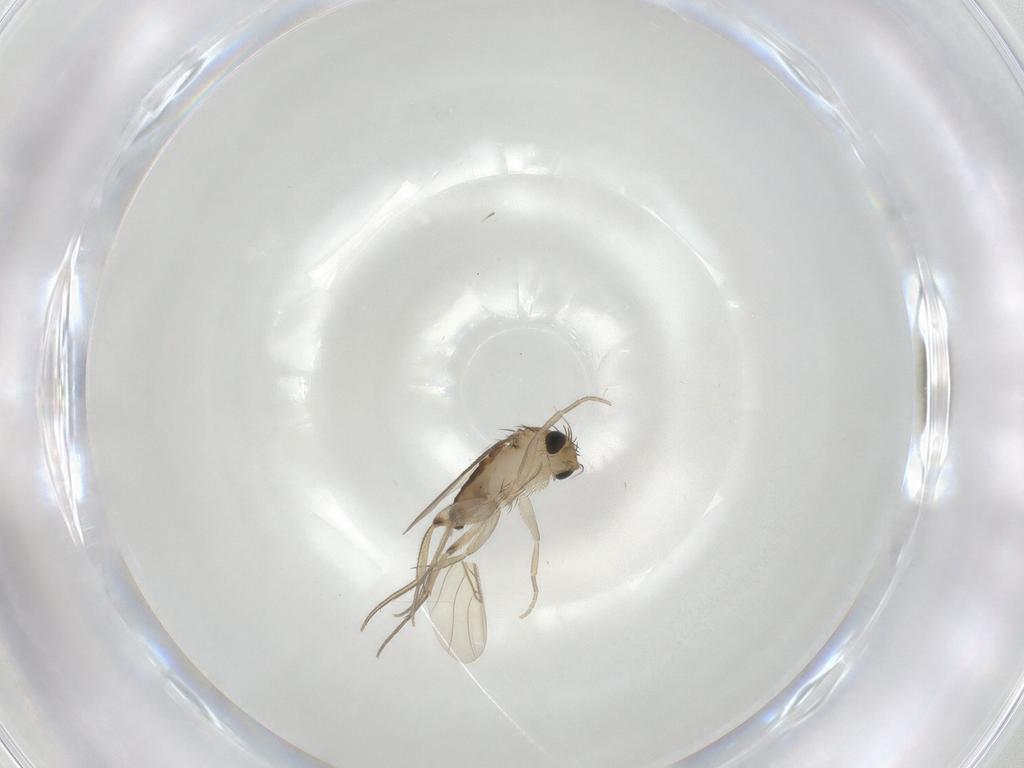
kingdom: Animalia
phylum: Arthropoda
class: Insecta
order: Diptera
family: Phoridae
